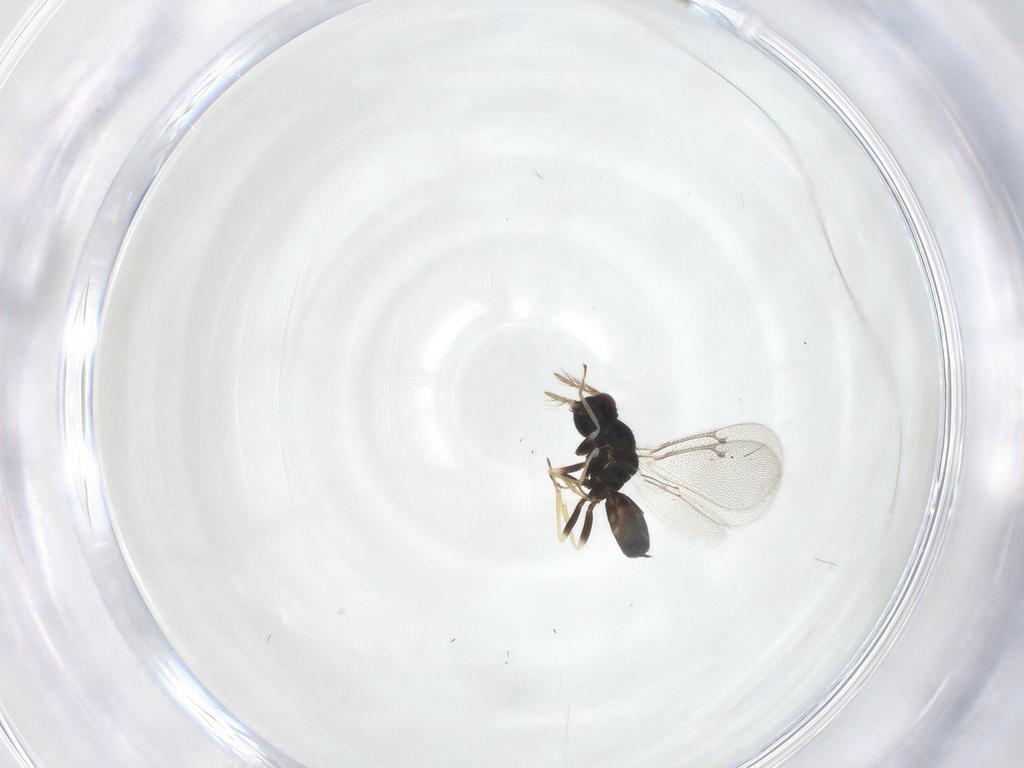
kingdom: Animalia
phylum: Arthropoda
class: Insecta
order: Hymenoptera
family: Eulophidae
